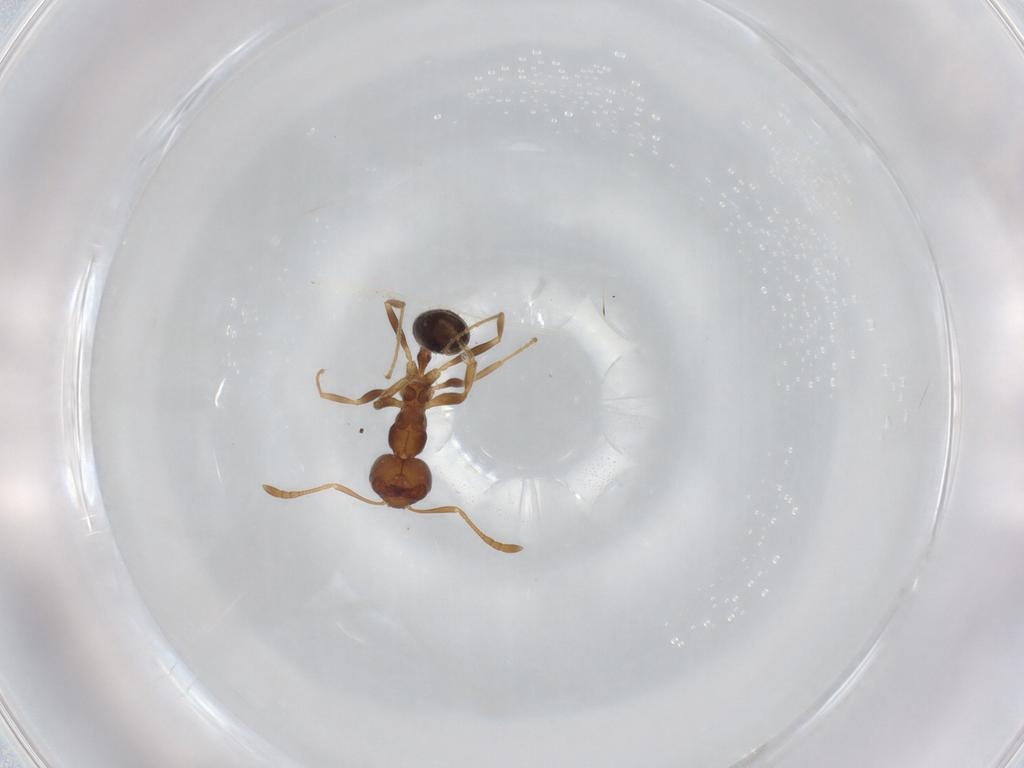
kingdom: Animalia
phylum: Arthropoda
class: Insecta
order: Hymenoptera
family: Formicidae
